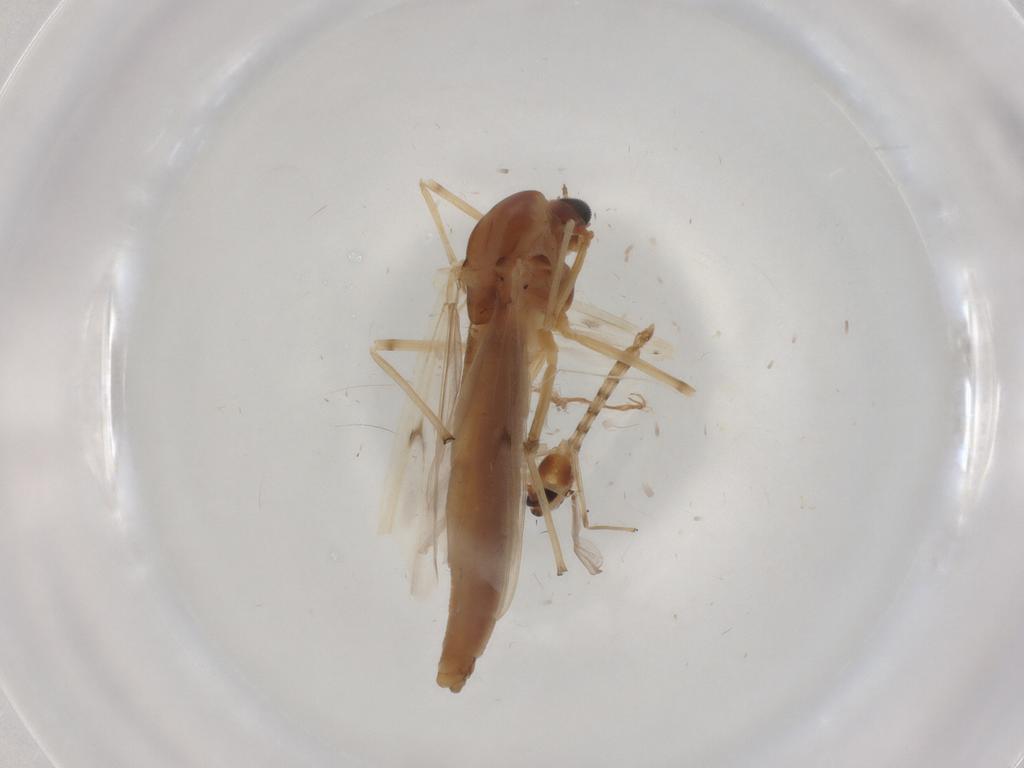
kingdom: Animalia
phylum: Arthropoda
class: Insecta
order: Diptera
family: Chironomidae
